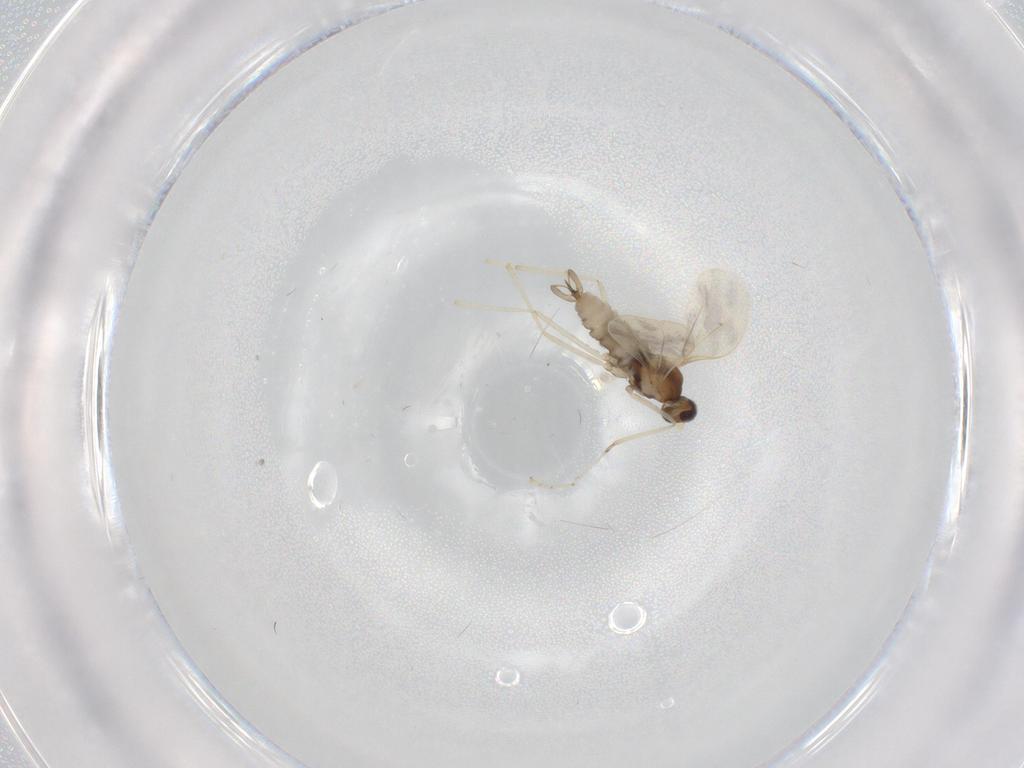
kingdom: Animalia
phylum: Arthropoda
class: Insecta
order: Diptera
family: Cecidomyiidae
